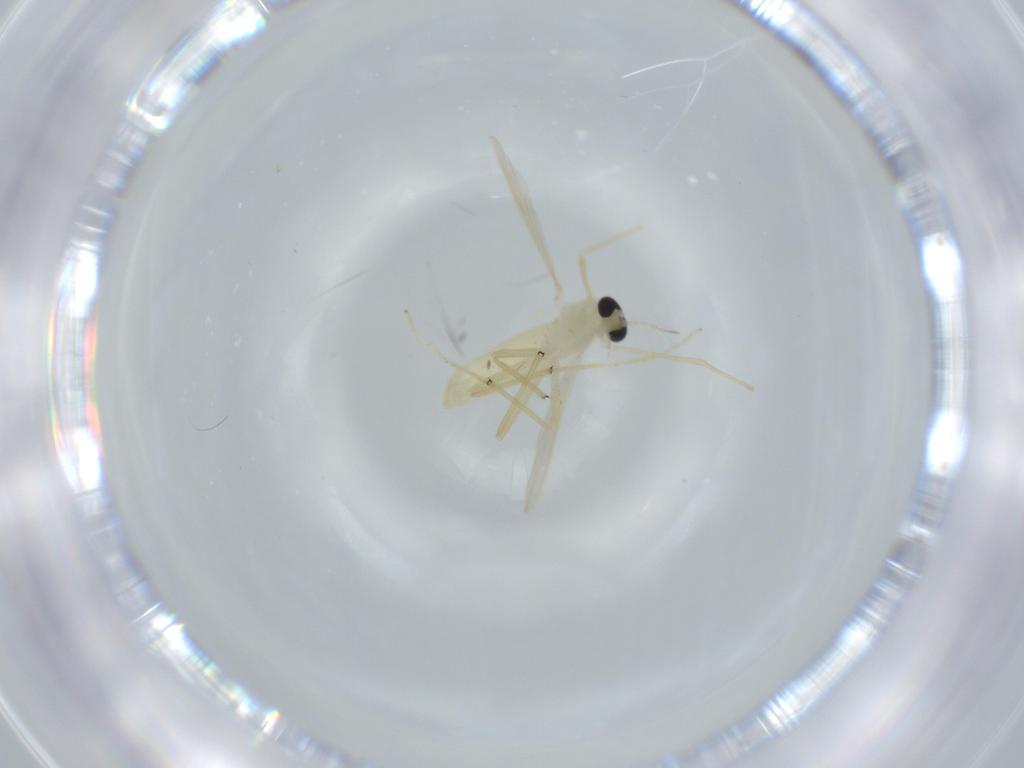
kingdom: Animalia
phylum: Arthropoda
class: Insecta
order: Diptera
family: Chironomidae
